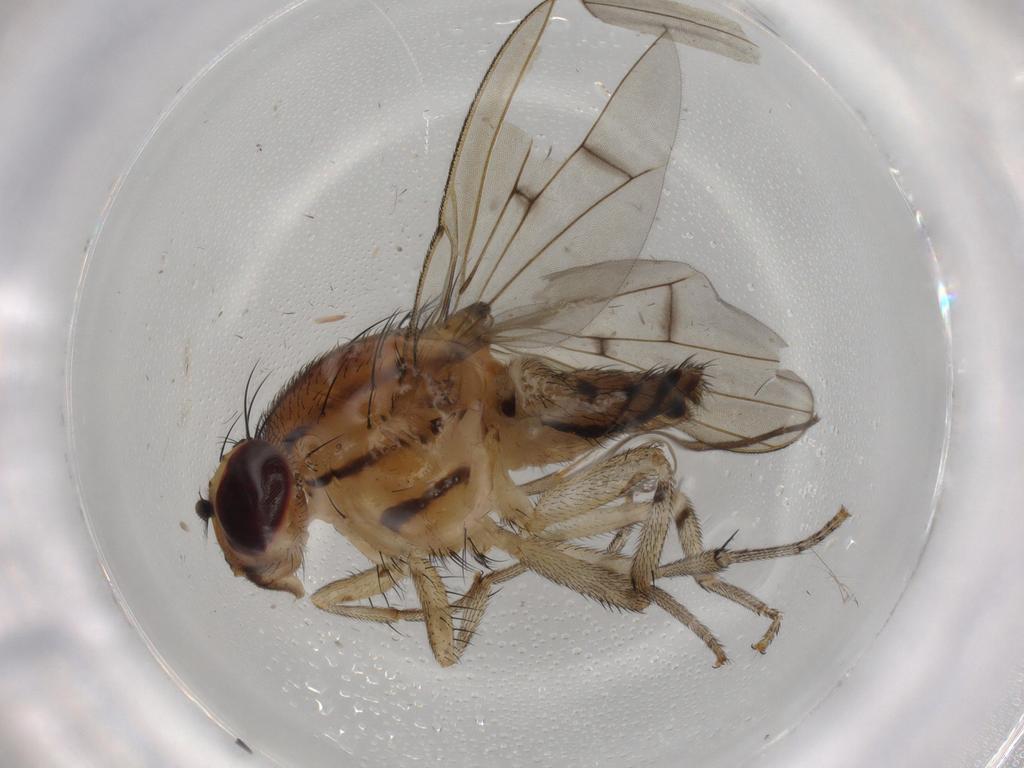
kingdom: Animalia
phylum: Arthropoda
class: Insecta
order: Diptera
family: Lauxaniidae
